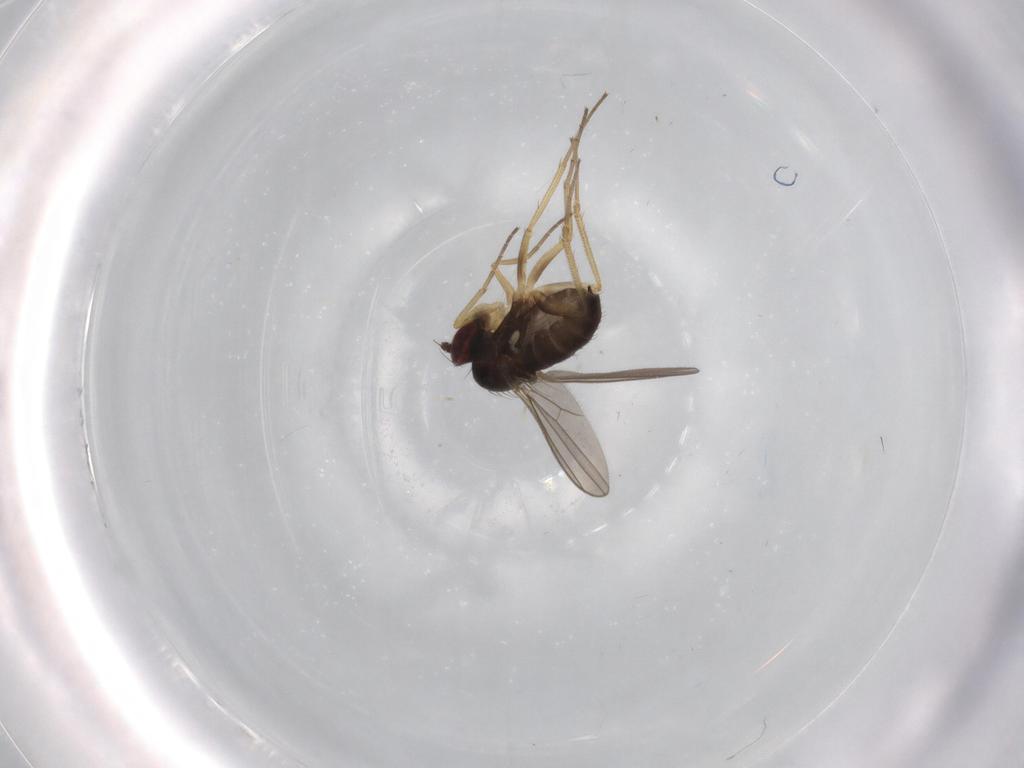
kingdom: Animalia
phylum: Arthropoda
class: Insecta
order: Diptera
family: Dolichopodidae
